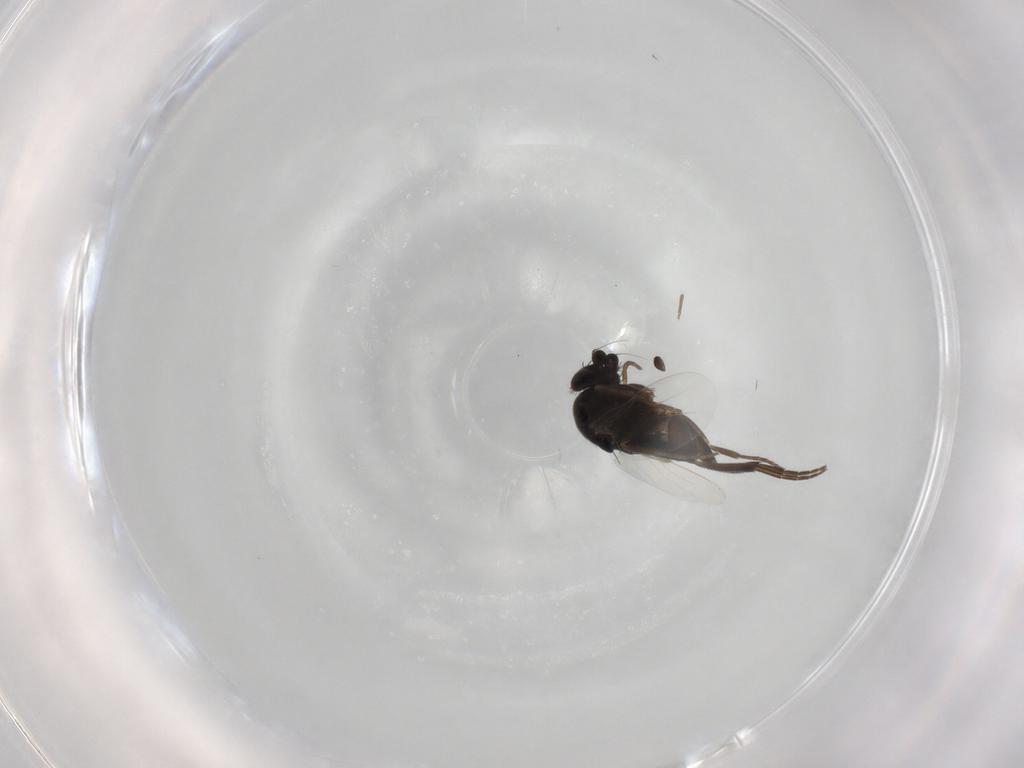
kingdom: Animalia
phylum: Arthropoda
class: Insecta
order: Diptera
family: Phoridae
